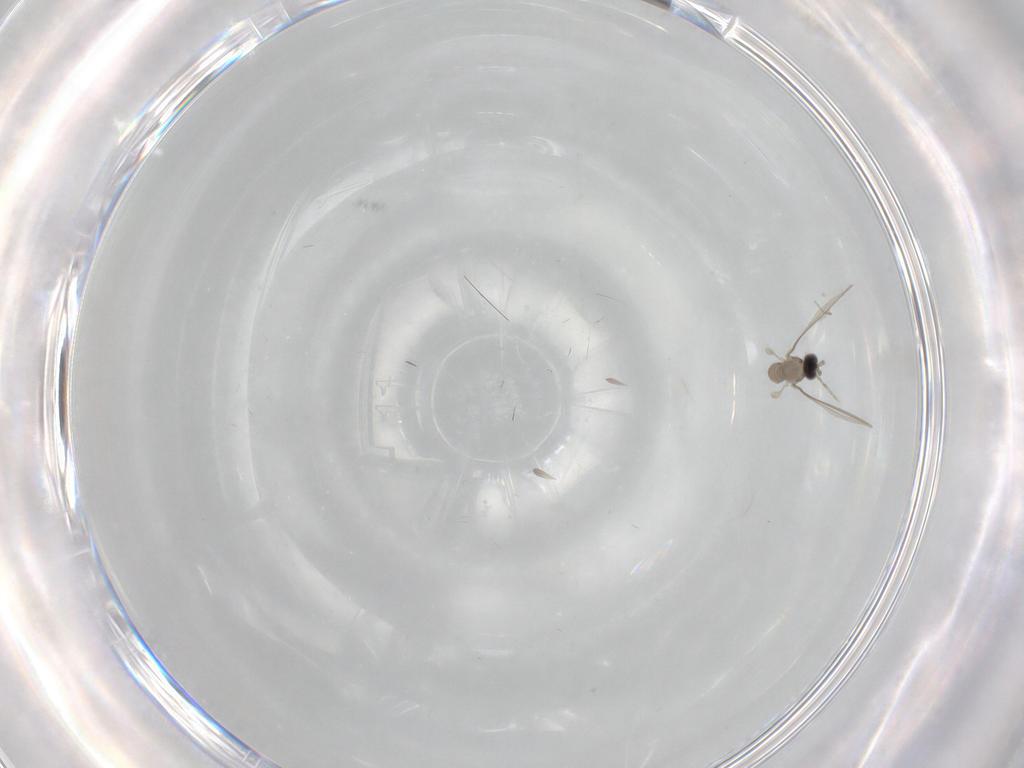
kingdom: Animalia
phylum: Arthropoda
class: Insecta
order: Diptera
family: Cecidomyiidae
